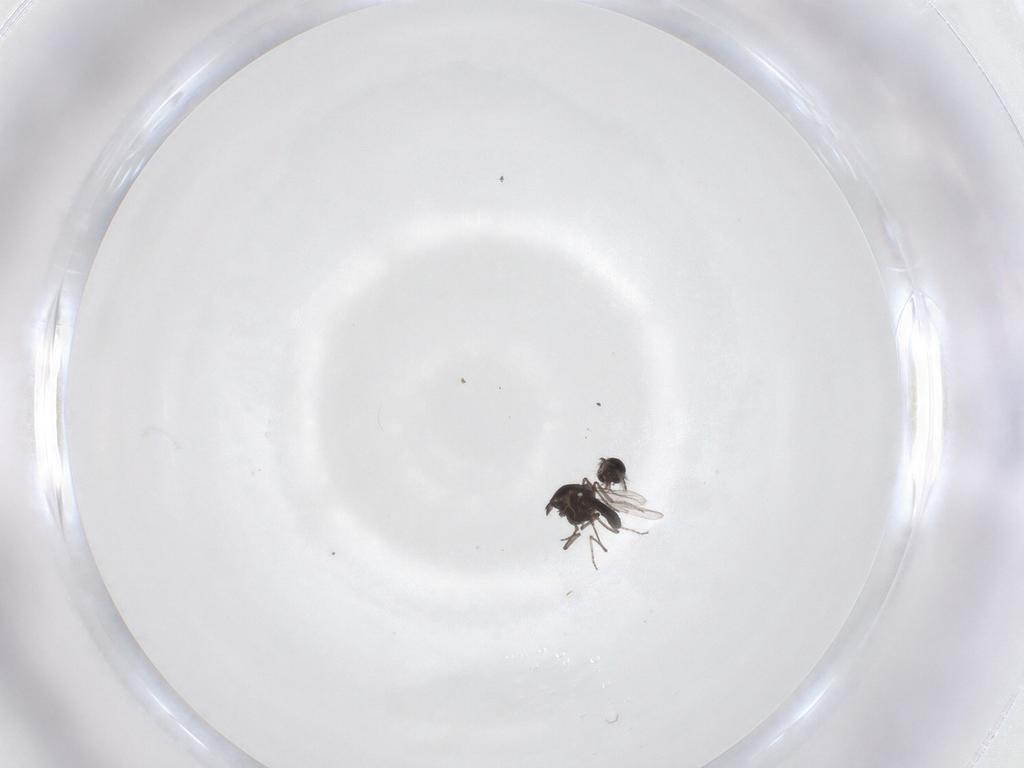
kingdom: Animalia
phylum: Arthropoda
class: Insecta
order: Diptera
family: Ceratopogonidae
